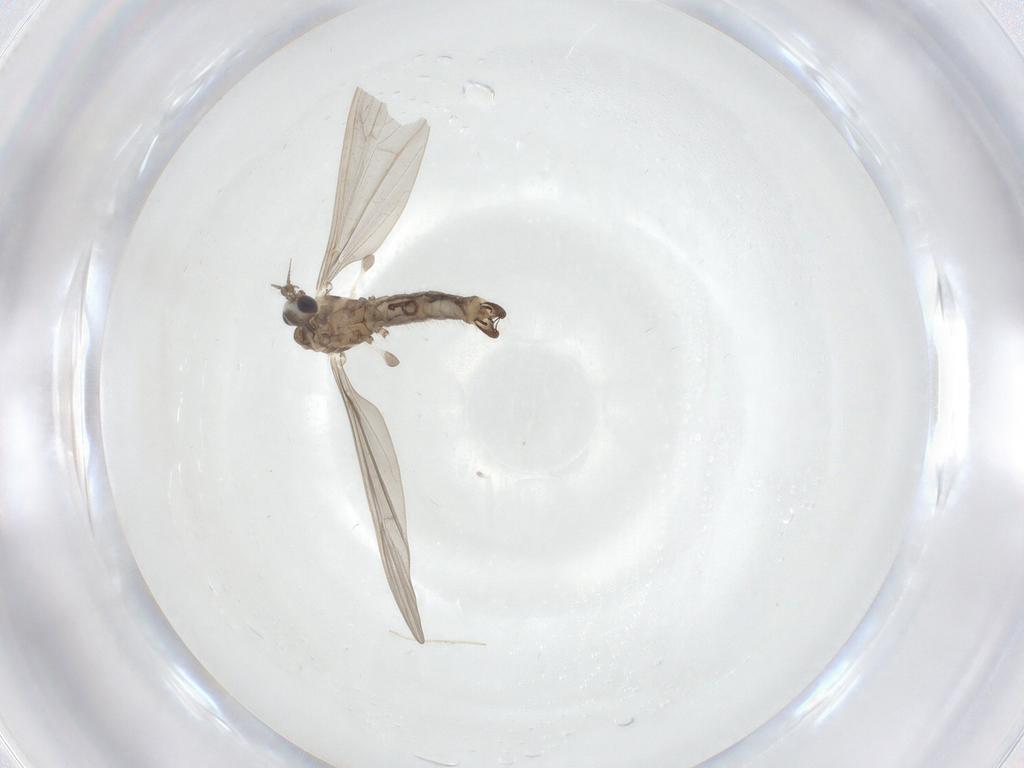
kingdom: Animalia
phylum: Arthropoda
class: Insecta
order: Diptera
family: Limoniidae
